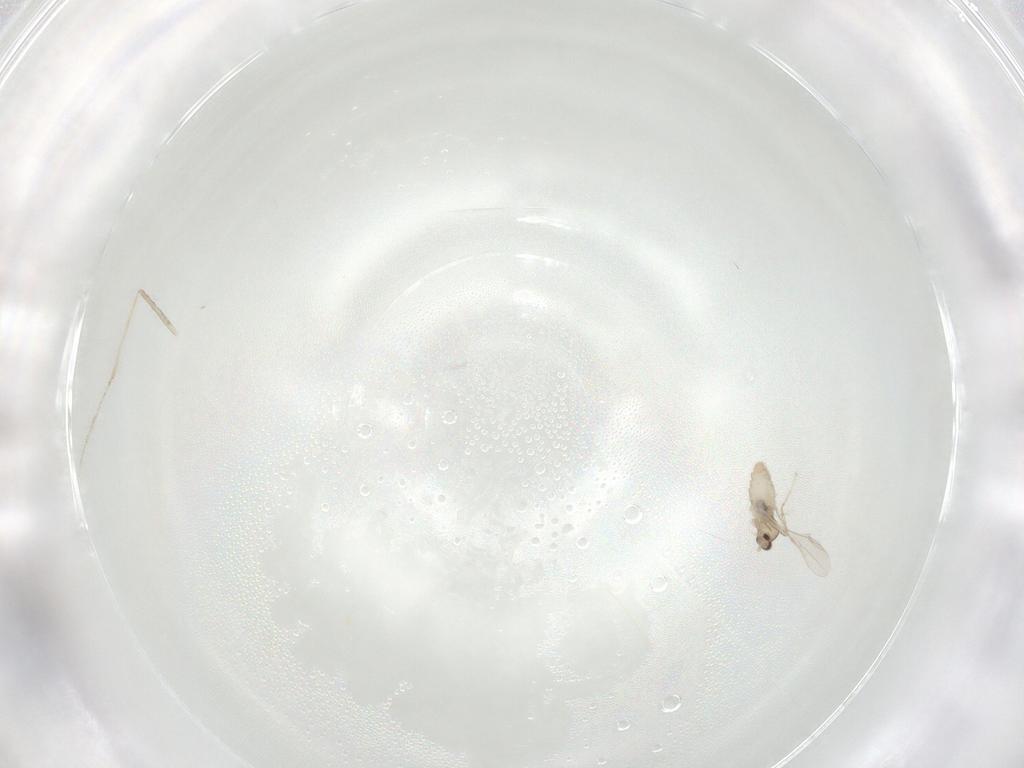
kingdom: Animalia
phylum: Arthropoda
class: Insecta
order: Diptera
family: Cecidomyiidae
